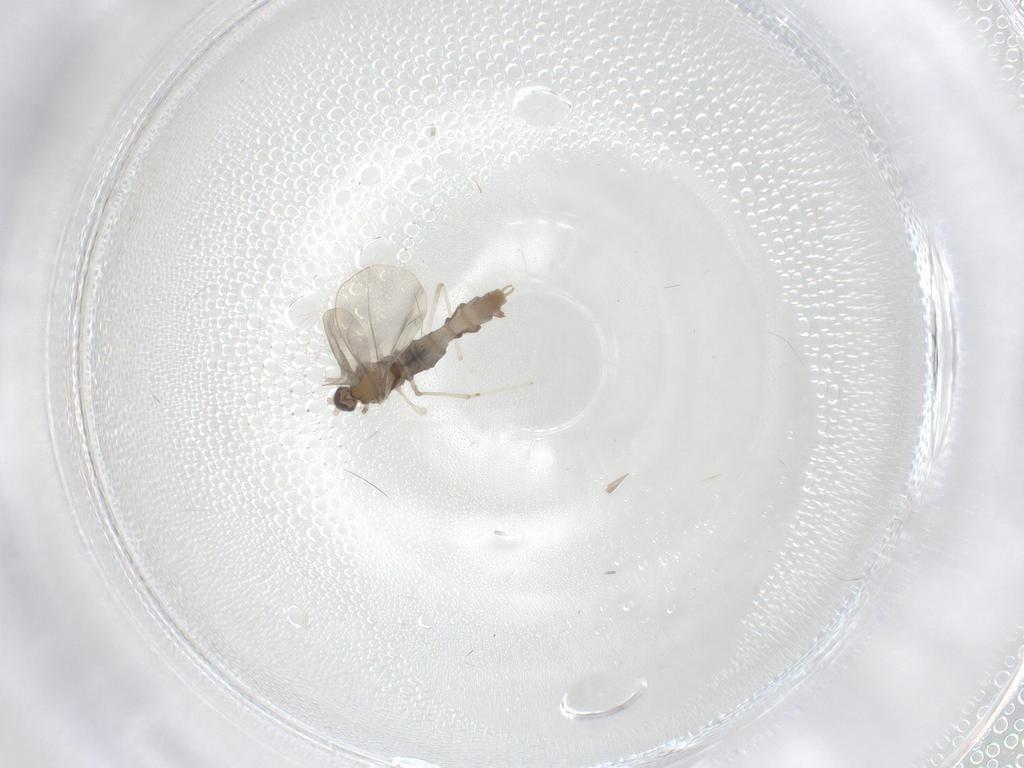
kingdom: Animalia
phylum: Arthropoda
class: Insecta
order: Diptera
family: Cecidomyiidae
